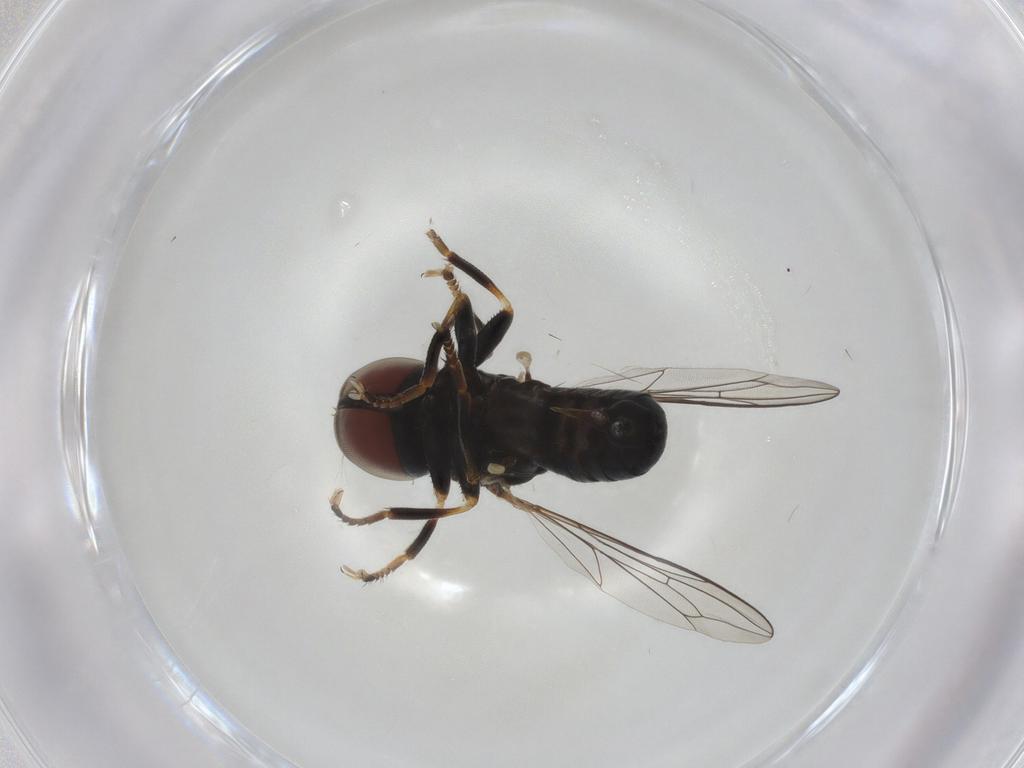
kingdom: Animalia
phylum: Arthropoda
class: Insecta
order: Diptera
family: Pipunculidae
